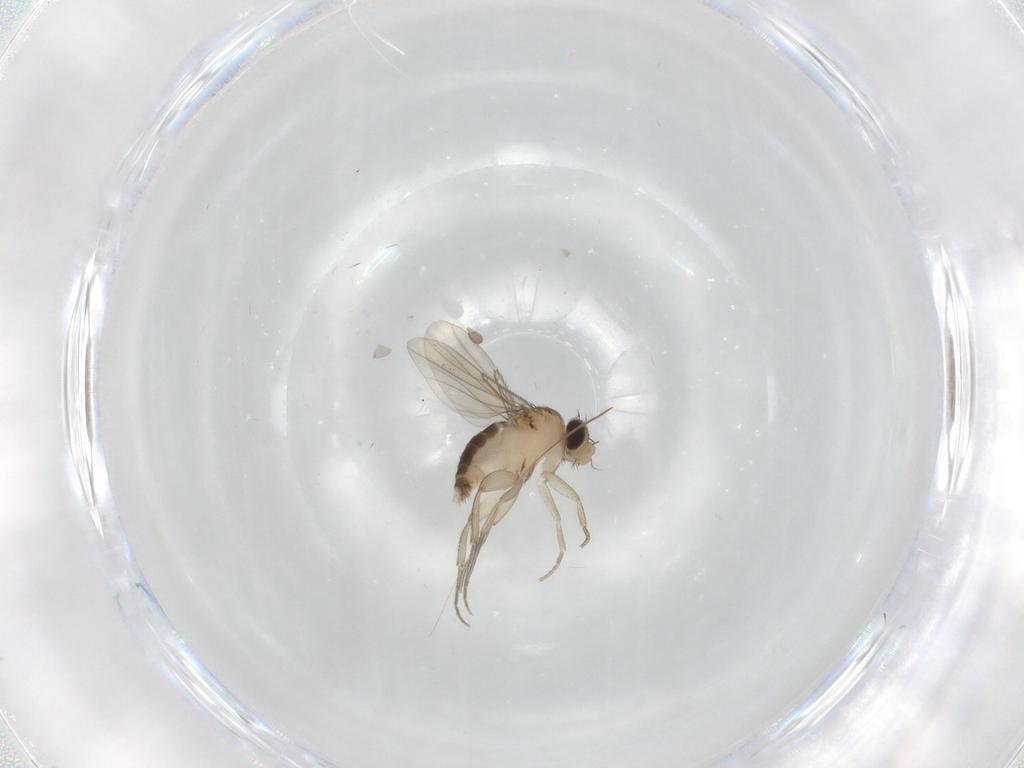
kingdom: Animalia
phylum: Arthropoda
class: Insecta
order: Diptera
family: Phoridae
